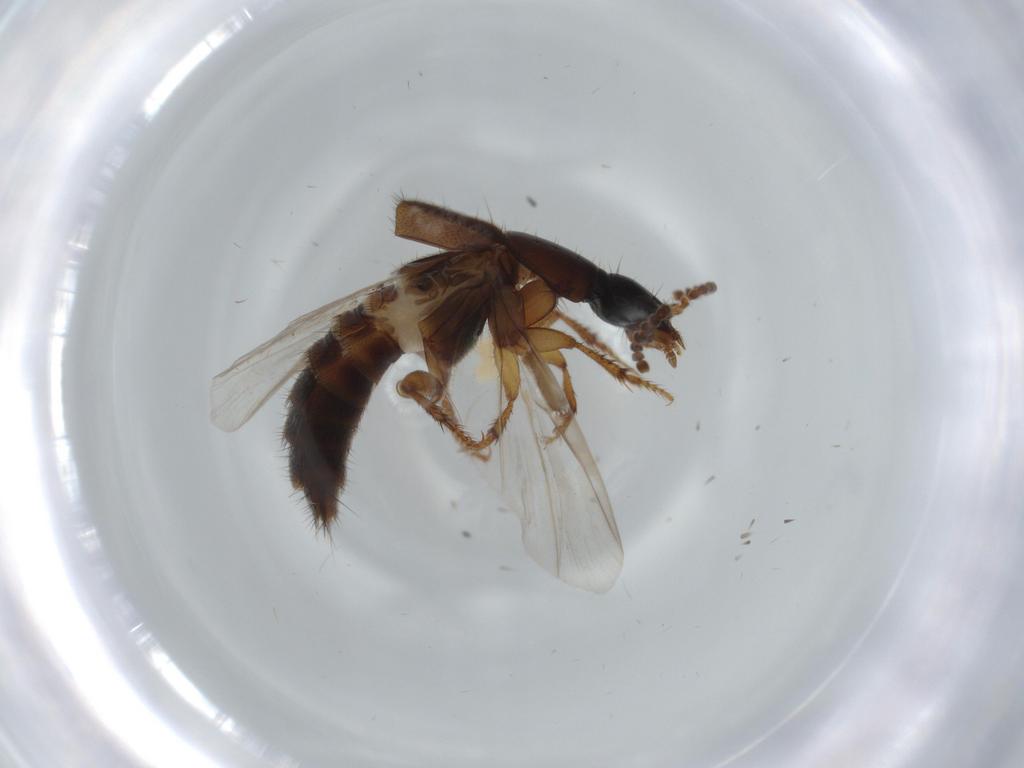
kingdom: Animalia
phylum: Arthropoda
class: Insecta
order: Coleoptera
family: Staphylinidae
